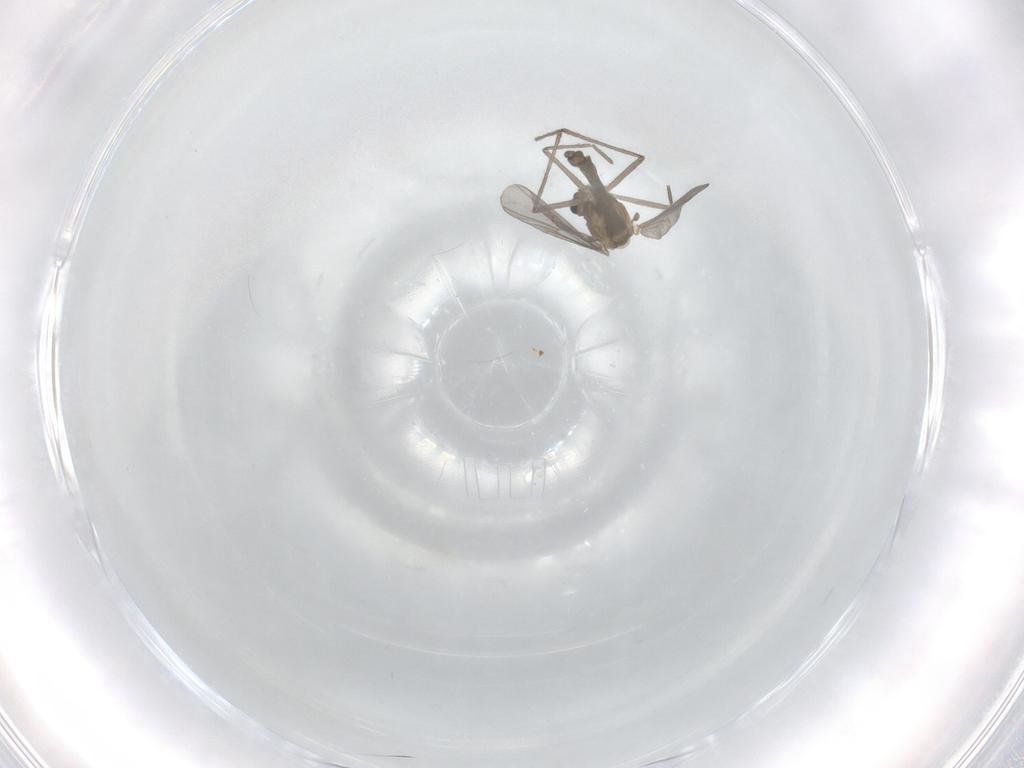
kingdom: Animalia
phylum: Arthropoda
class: Insecta
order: Diptera
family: Chironomidae
